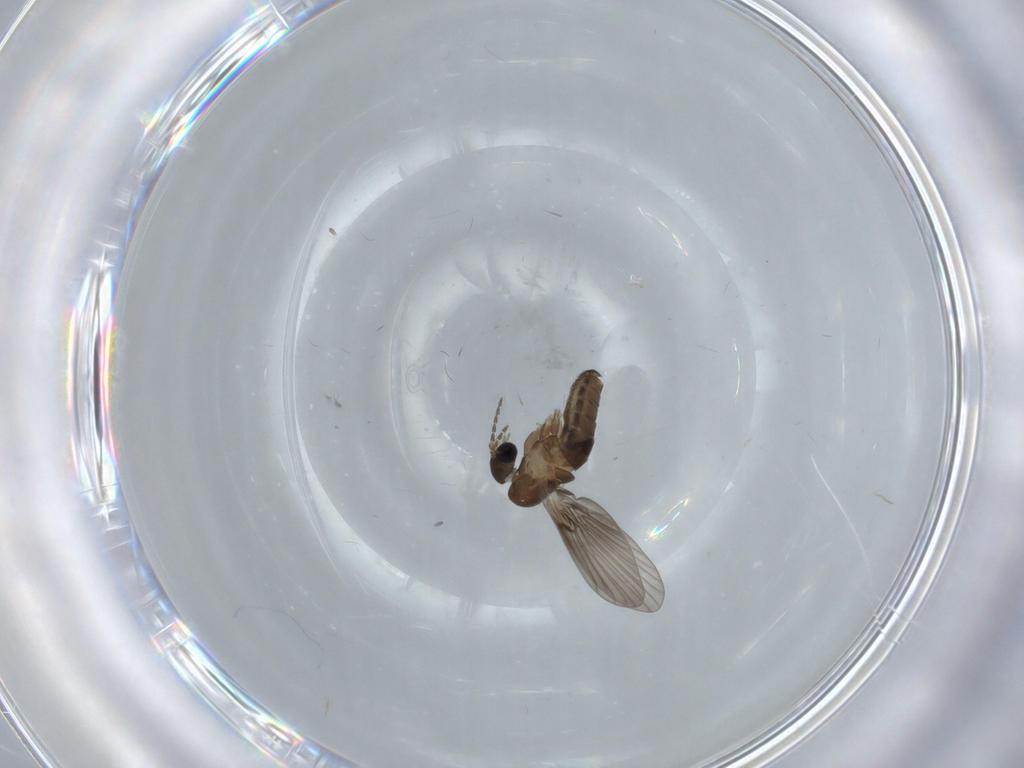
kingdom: Animalia
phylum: Arthropoda
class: Insecta
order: Diptera
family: Psychodidae
